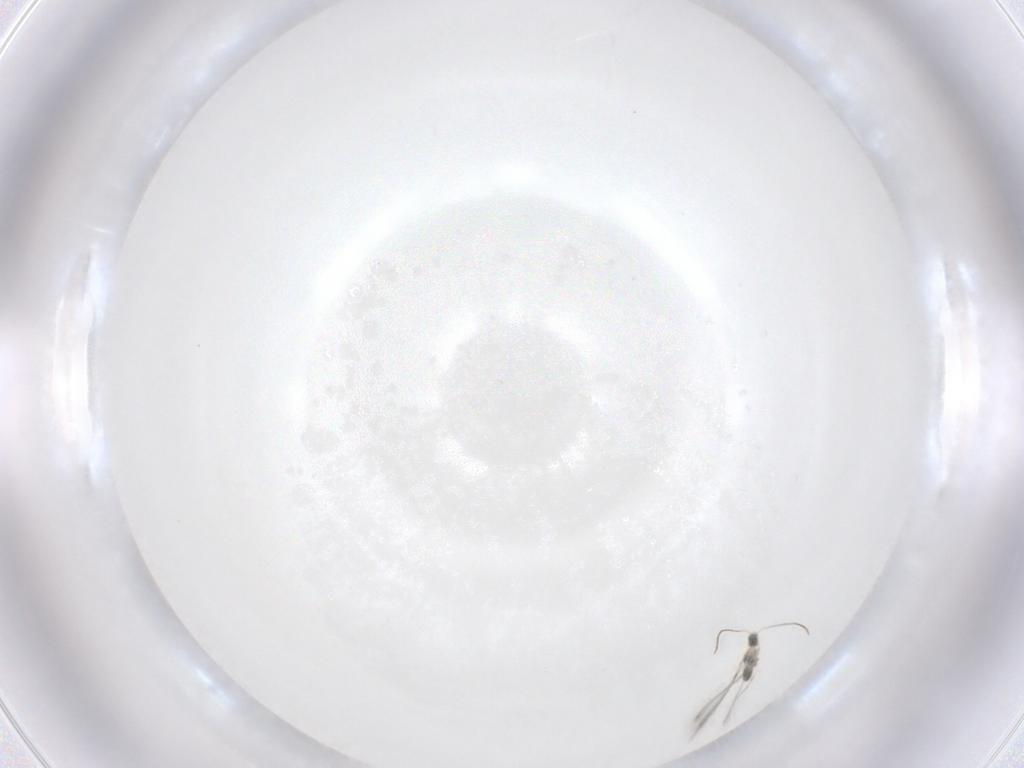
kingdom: Animalia
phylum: Arthropoda
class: Insecta
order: Hymenoptera
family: Mymaridae
